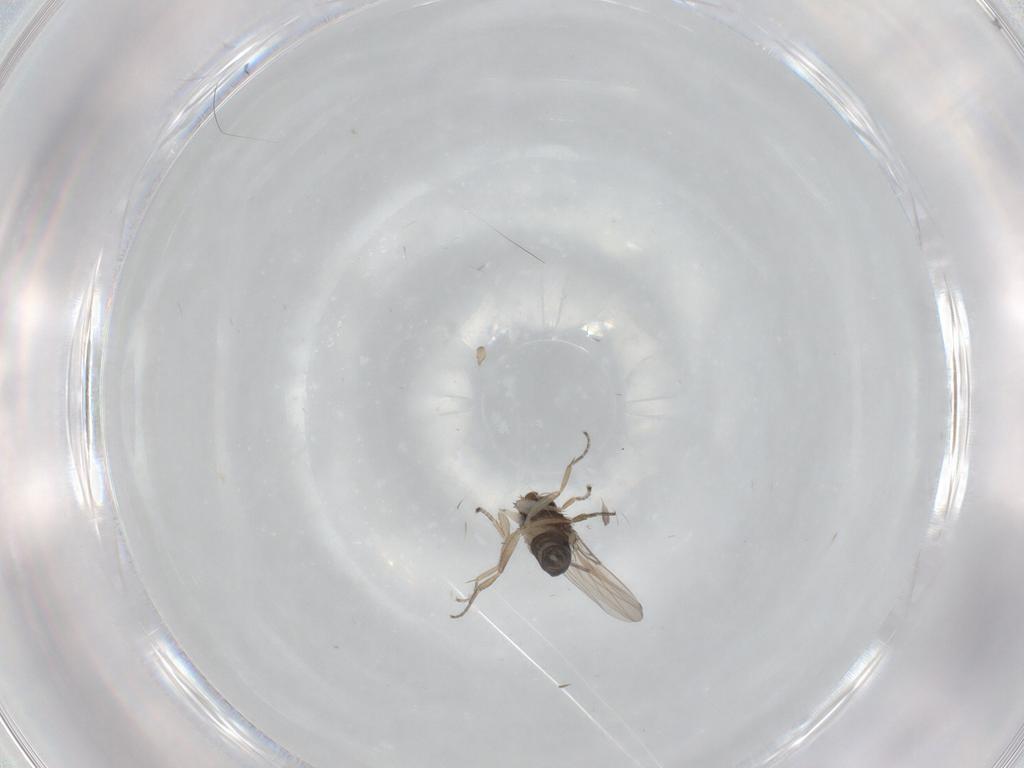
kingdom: Animalia
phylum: Arthropoda
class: Insecta
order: Diptera
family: Phoridae
